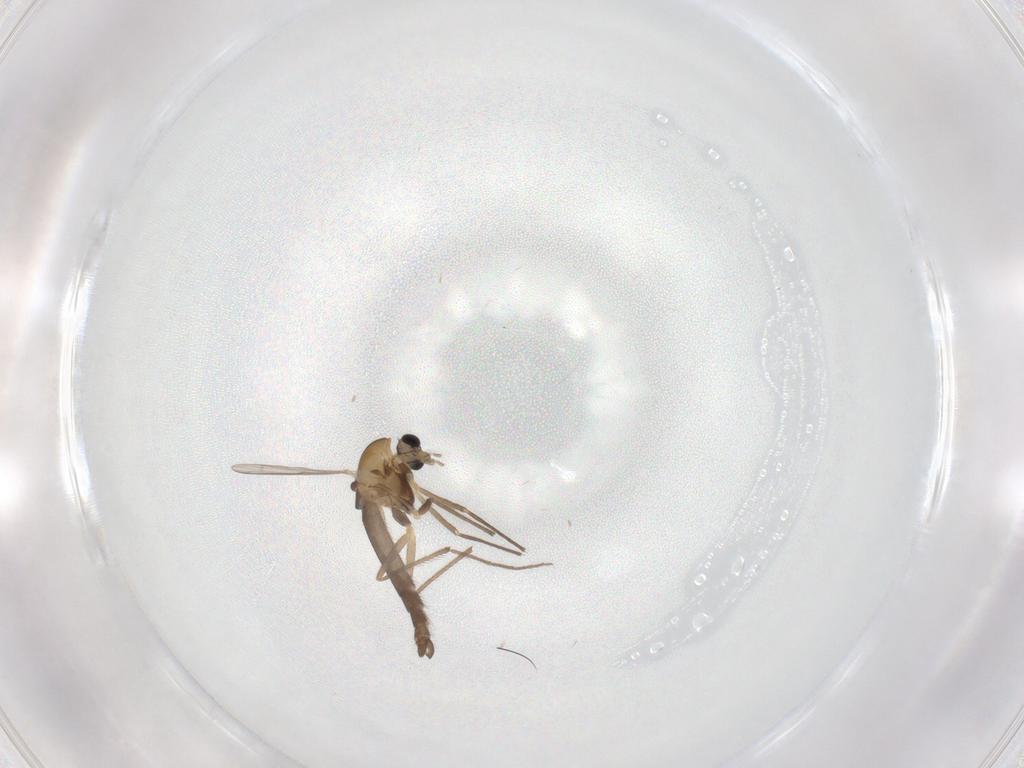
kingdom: Animalia
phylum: Arthropoda
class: Insecta
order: Diptera
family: Chironomidae
